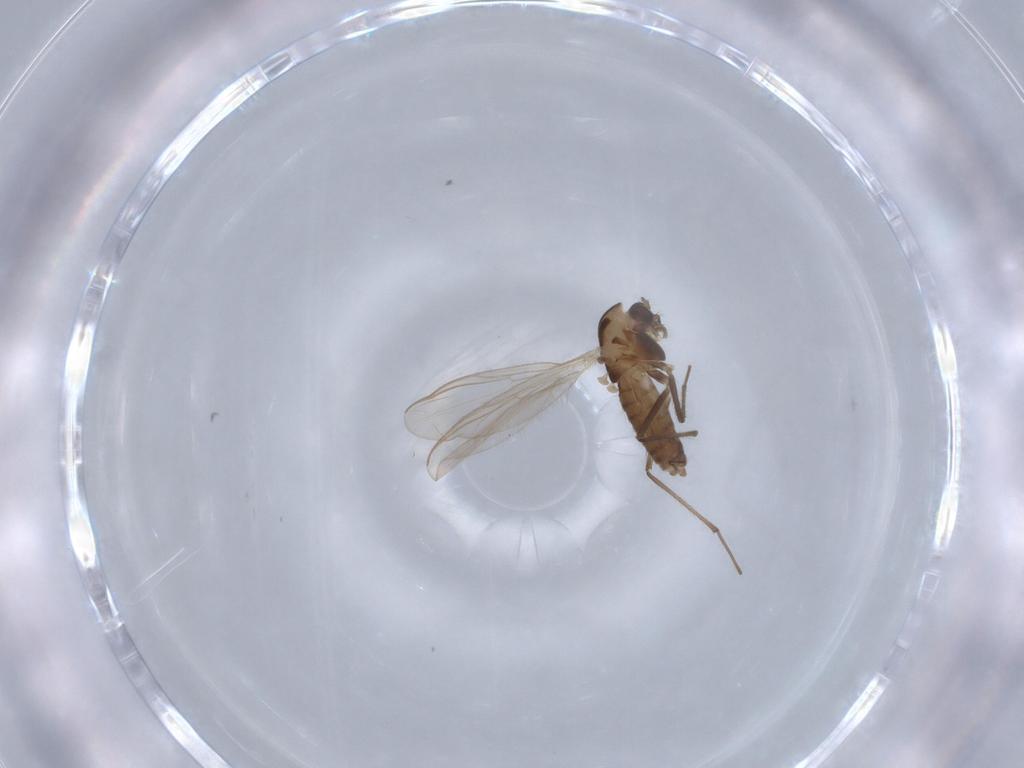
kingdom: Animalia
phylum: Arthropoda
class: Insecta
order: Diptera
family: Chironomidae
